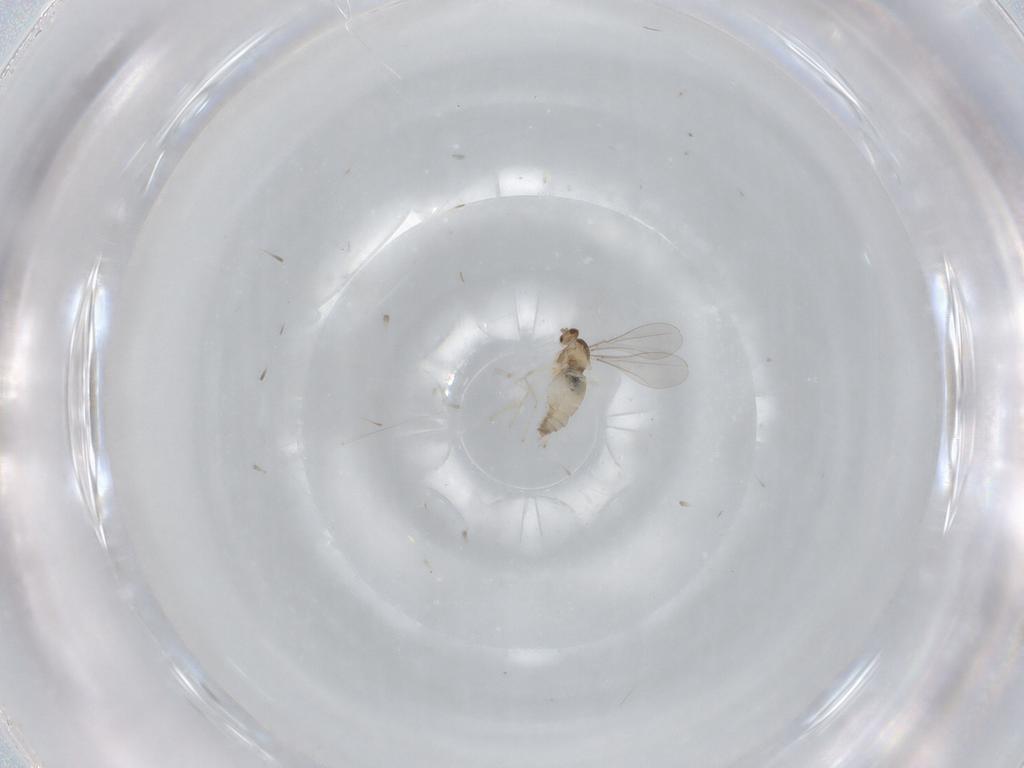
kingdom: Animalia
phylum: Arthropoda
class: Insecta
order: Diptera
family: Cecidomyiidae
